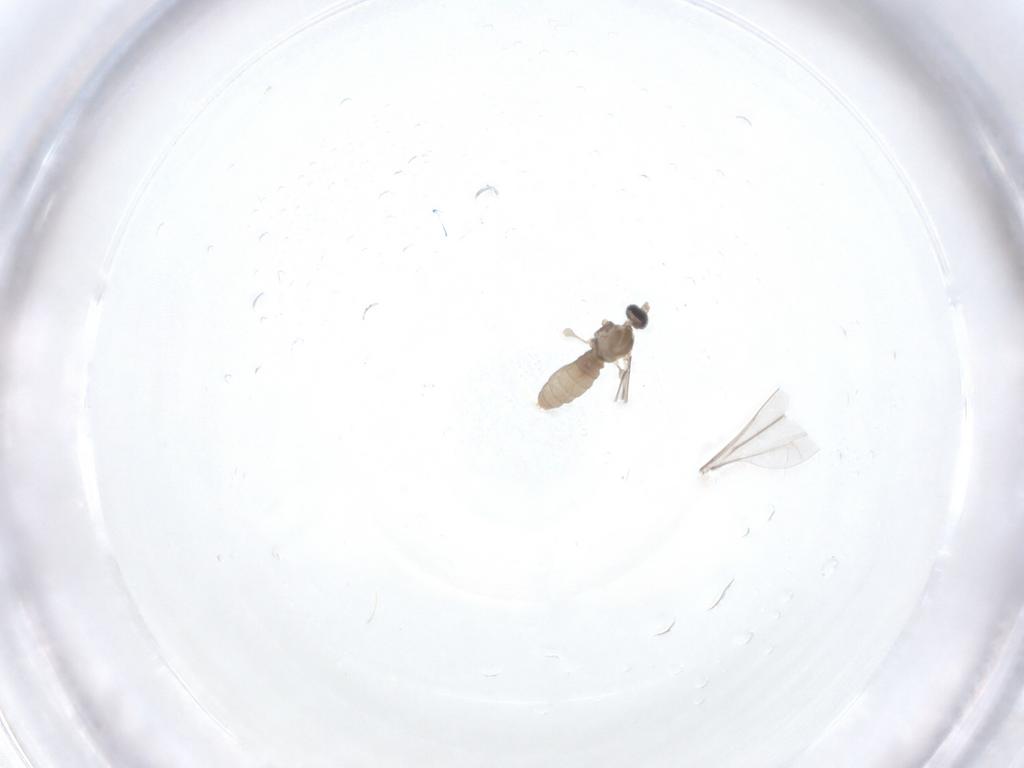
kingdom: Animalia
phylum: Arthropoda
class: Insecta
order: Diptera
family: Cecidomyiidae
